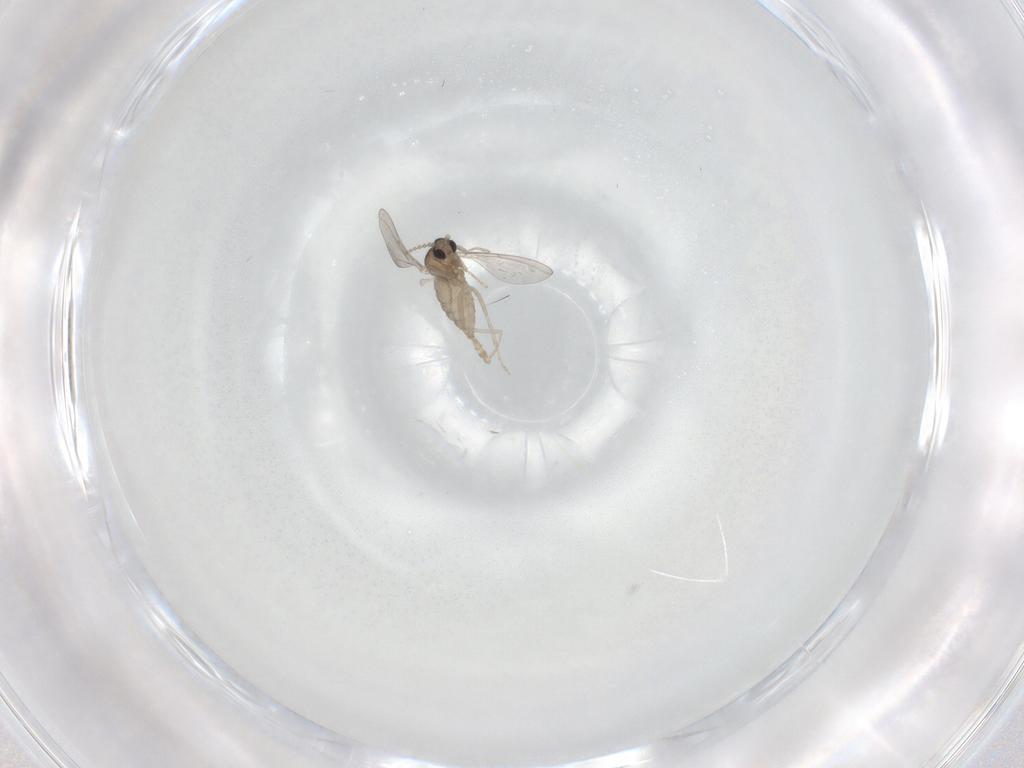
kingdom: Animalia
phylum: Arthropoda
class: Insecta
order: Diptera
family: Cecidomyiidae
